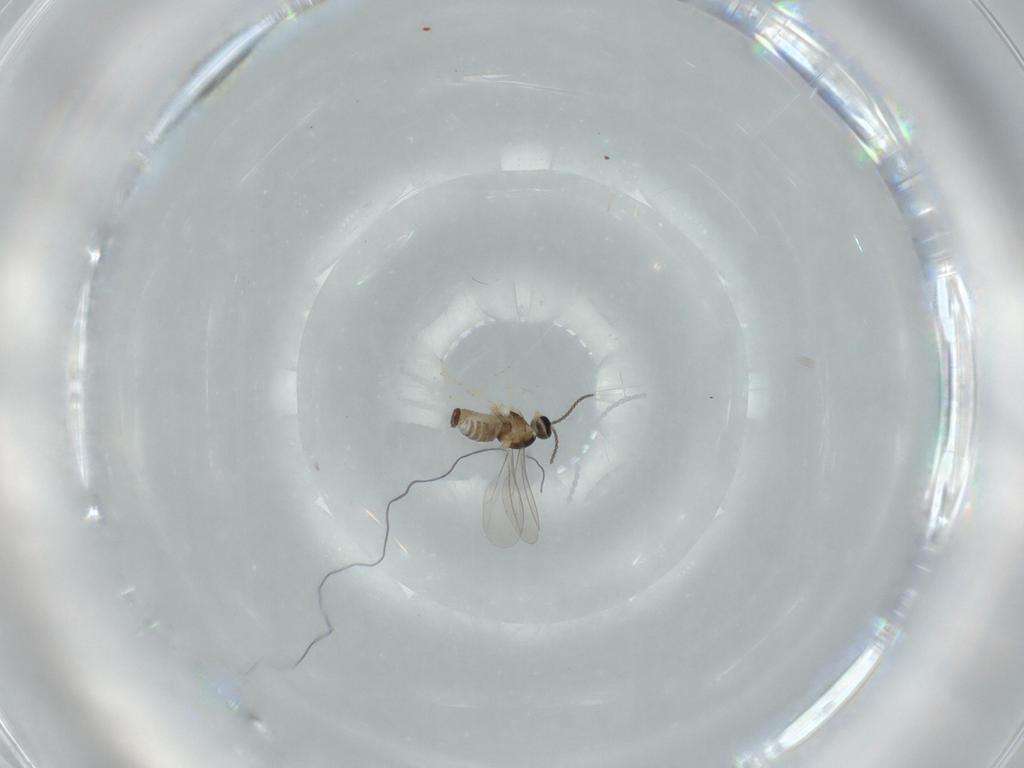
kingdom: Animalia
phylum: Arthropoda
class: Insecta
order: Diptera
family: Cecidomyiidae
